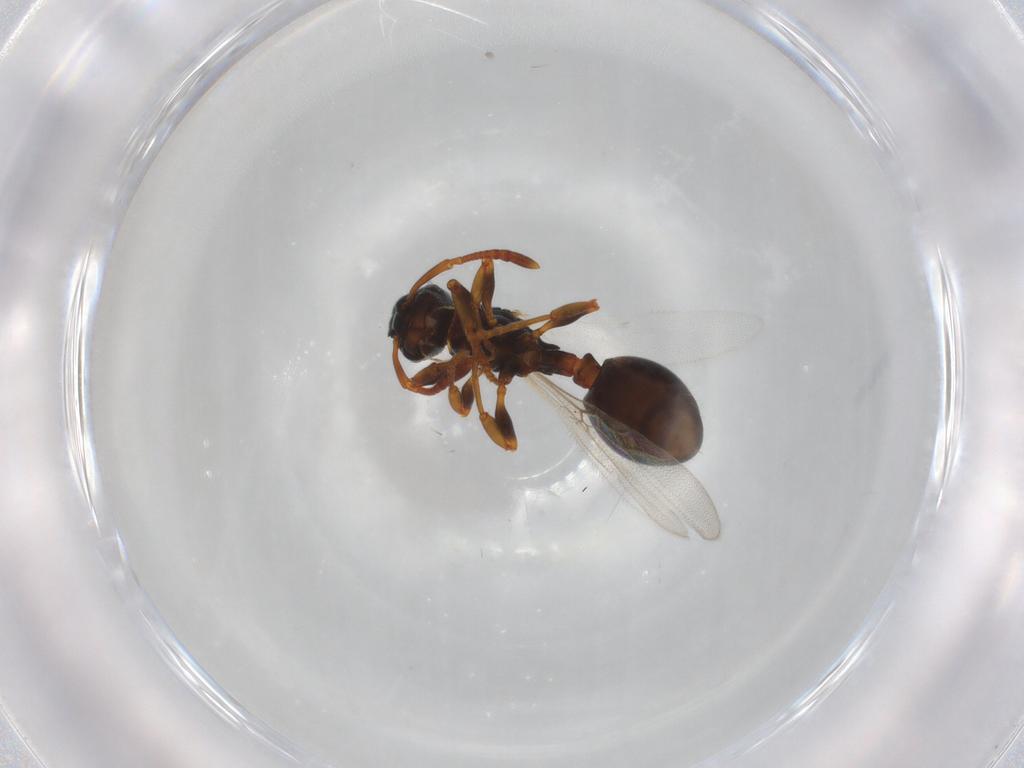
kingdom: Animalia
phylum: Arthropoda
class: Insecta
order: Hymenoptera
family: Formicidae
